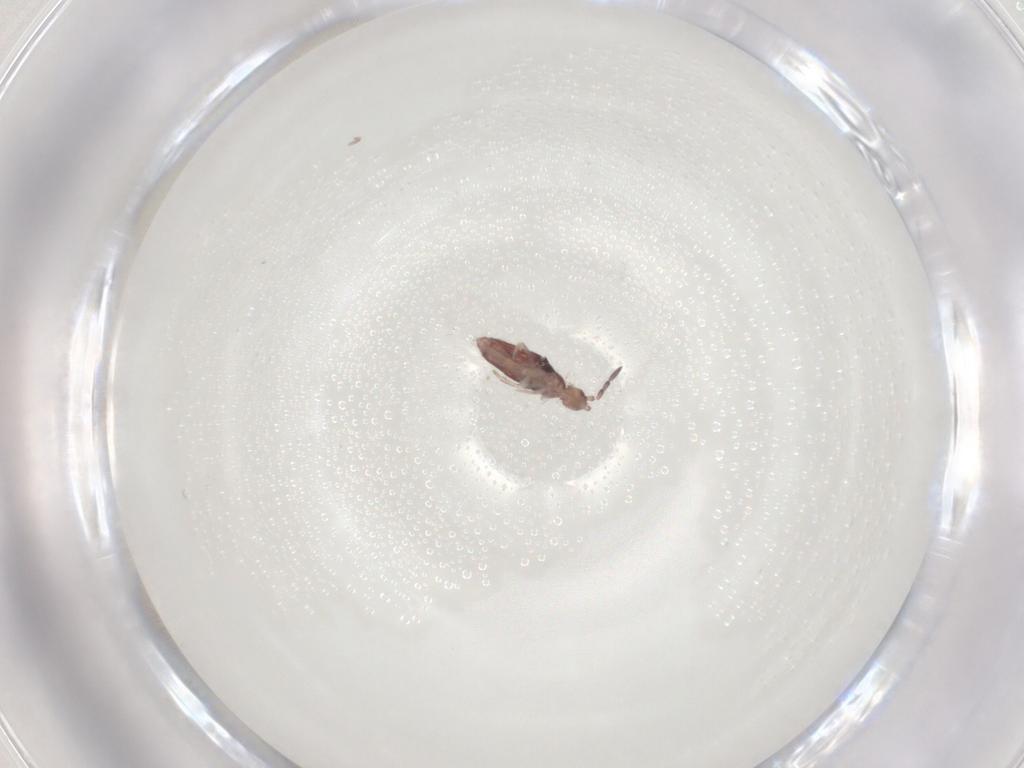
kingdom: Animalia
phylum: Arthropoda
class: Collembola
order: Entomobryomorpha
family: Entomobryidae
